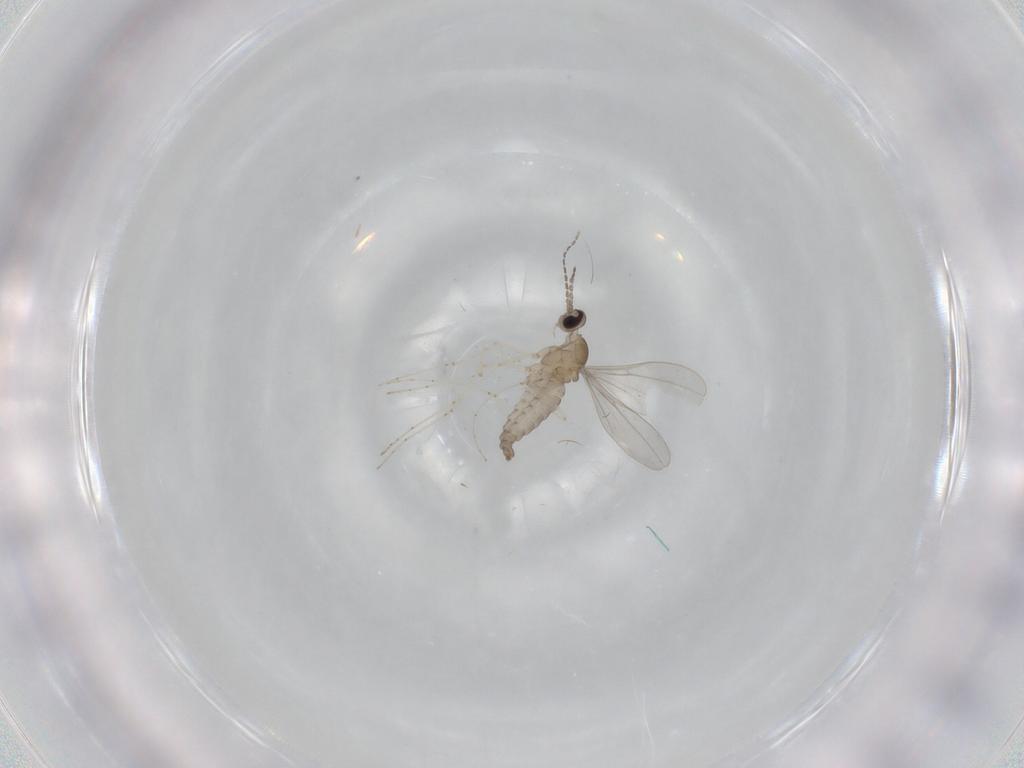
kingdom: Animalia
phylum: Arthropoda
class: Insecta
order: Diptera
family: Cecidomyiidae
